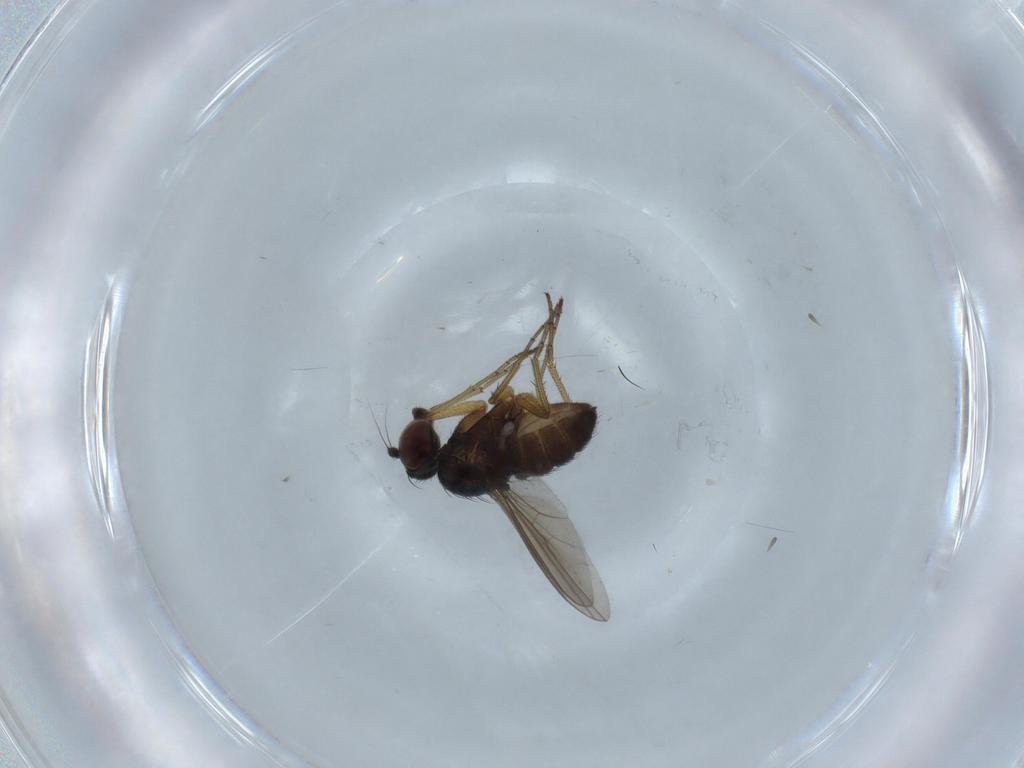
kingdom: Animalia
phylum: Arthropoda
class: Insecta
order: Diptera
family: Dolichopodidae
